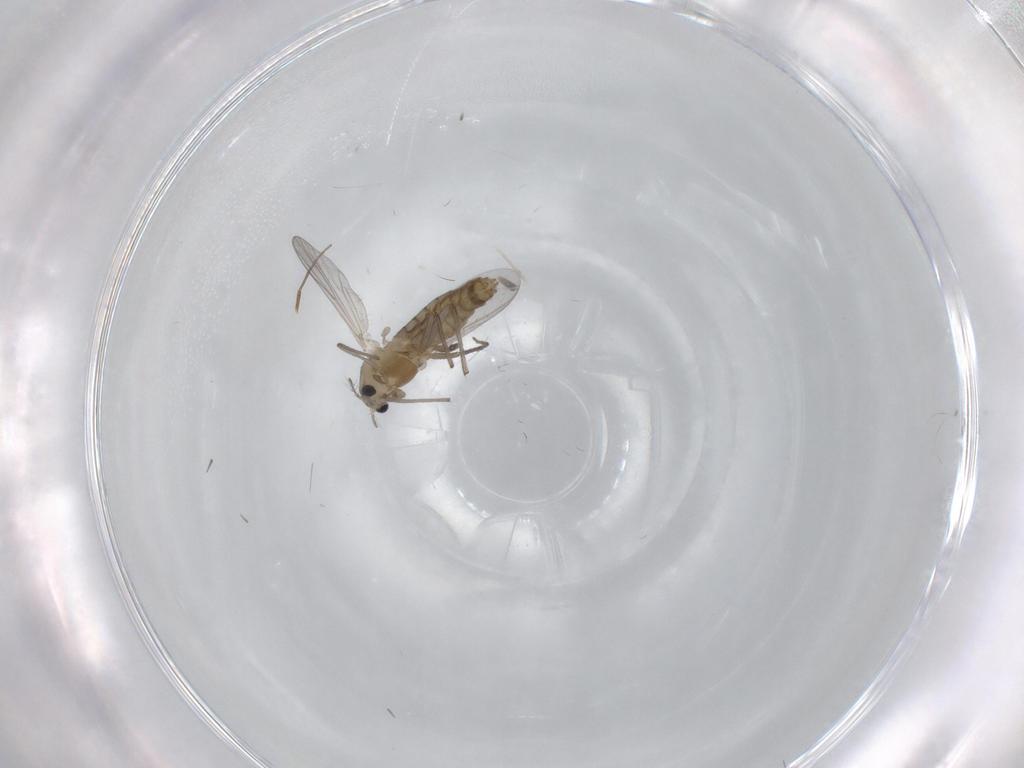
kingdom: Animalia
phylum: Arthropoda
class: Insecta
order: Diptera
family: Chironomidae
